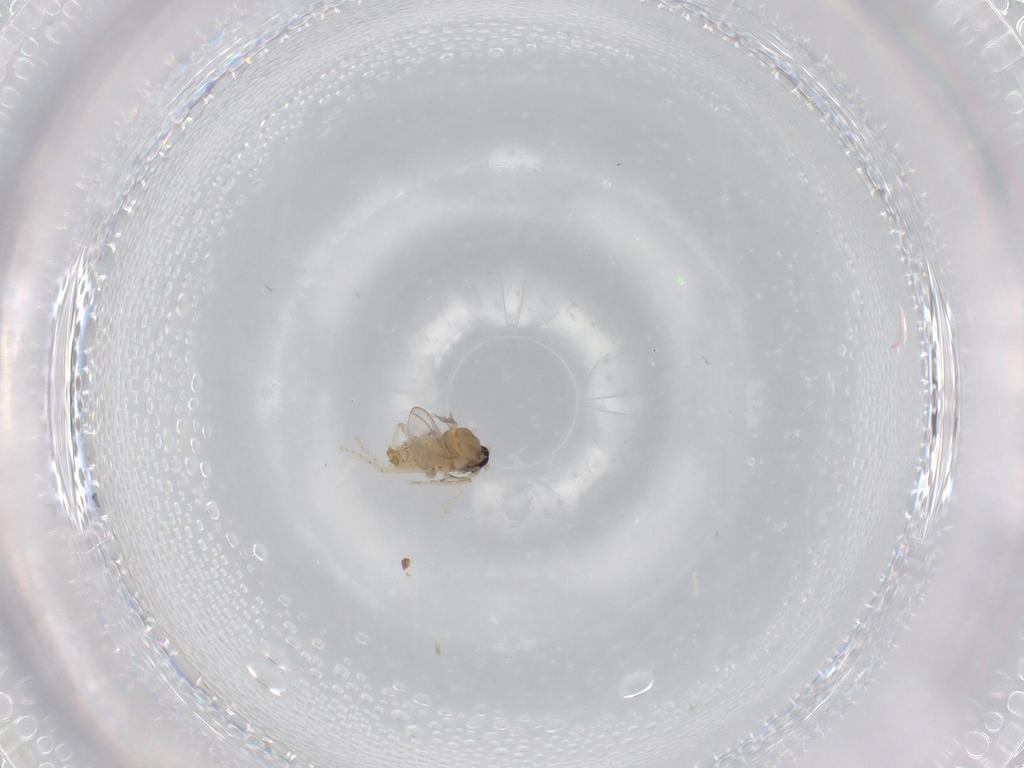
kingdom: Animalia
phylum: Arthropoda
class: Insecta
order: Diptera
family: Cecidomyiidae
